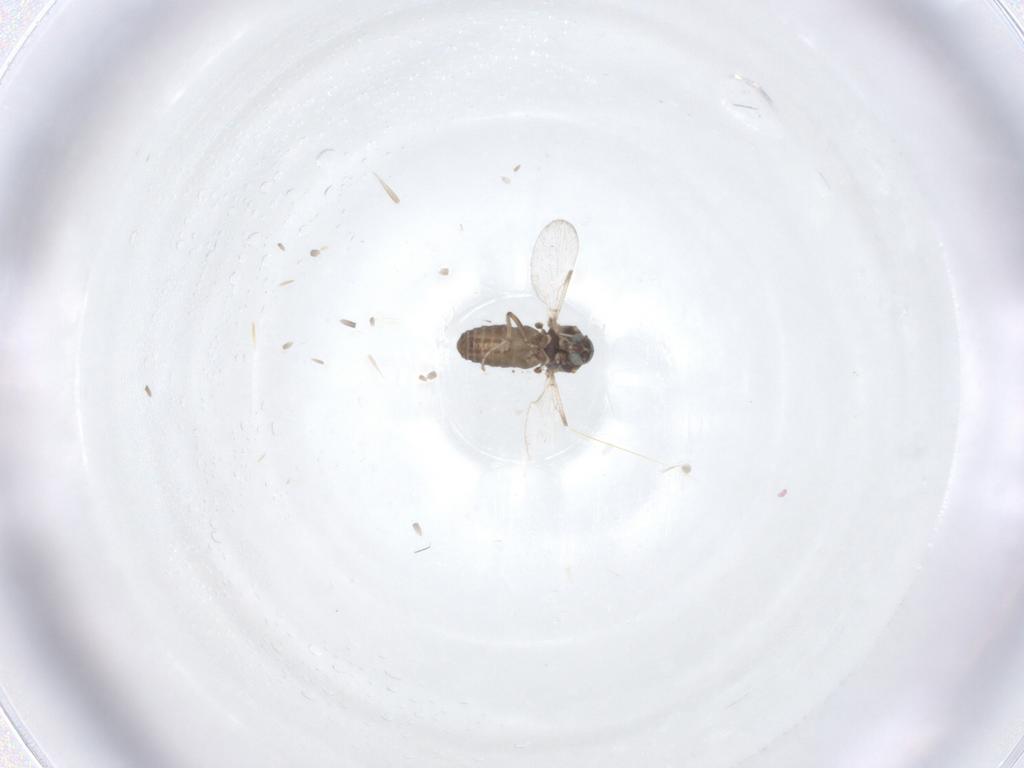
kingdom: Animalia
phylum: Arthropoda
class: Insecta
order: Diptera
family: Ceratopogonidae
